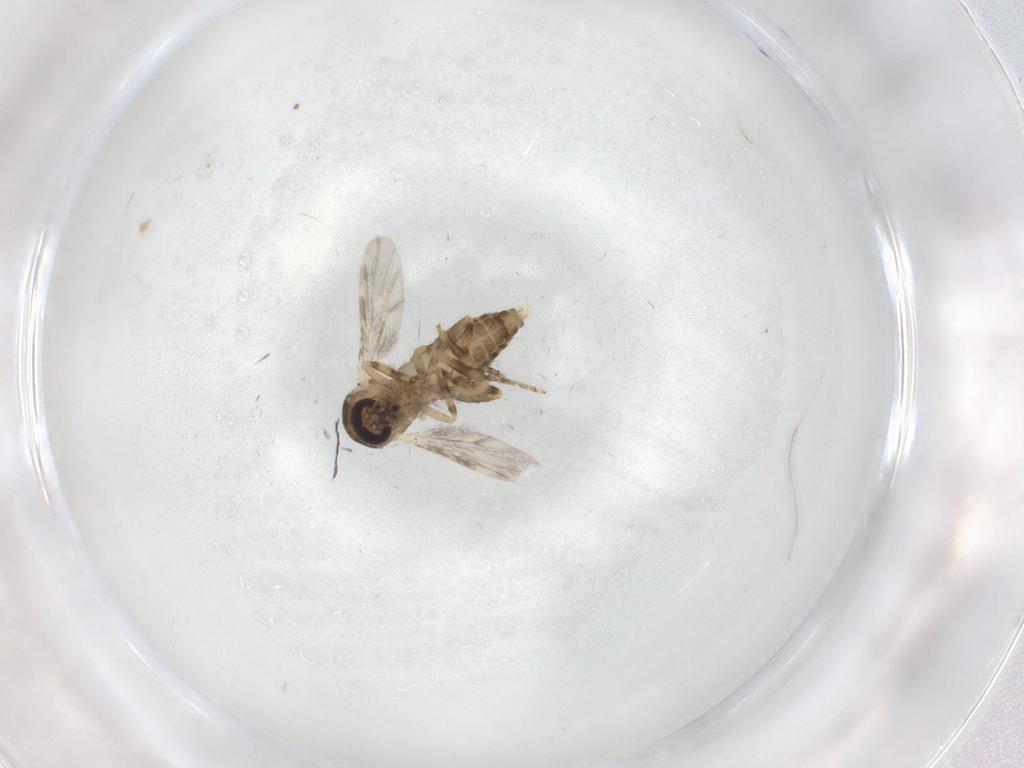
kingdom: Animalia
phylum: Arthropoda
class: Insecta
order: Diptera
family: Ceratopogonidae
